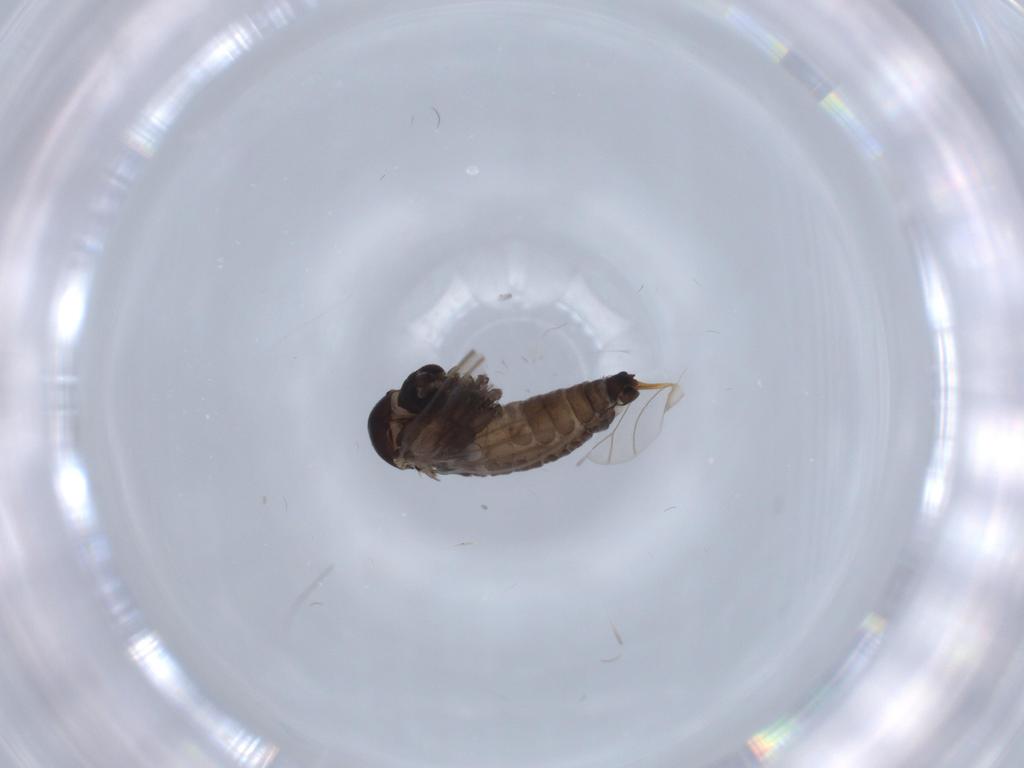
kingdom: Animalia
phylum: Arthropoda
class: Insecta
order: Diptera
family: Psychodidae
